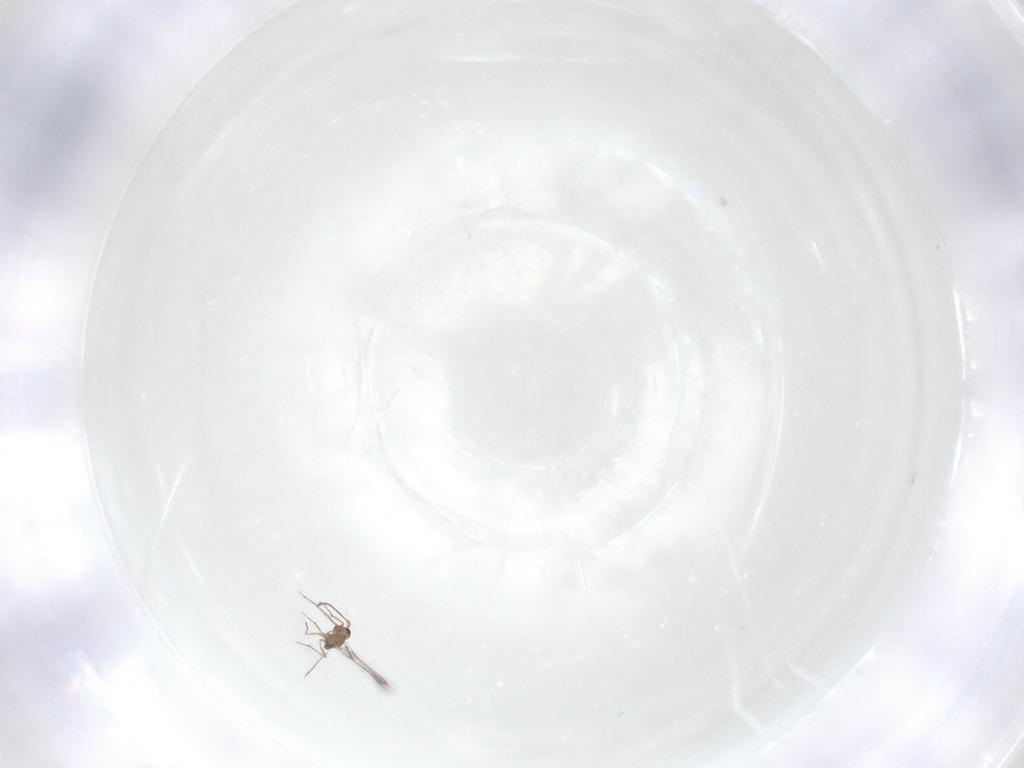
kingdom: Animalia
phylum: Arthropoda
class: Insecta
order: Hymenoptera
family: Mymaridae
